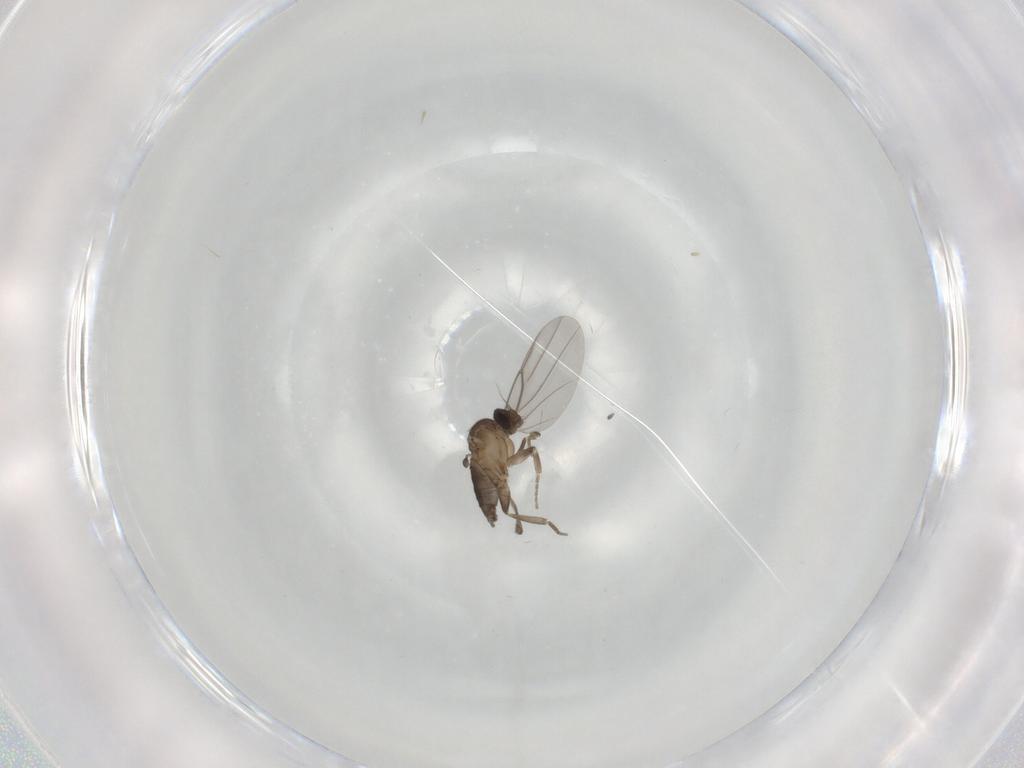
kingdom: Animalia
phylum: Arthropoda
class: Insecta
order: Diptera
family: Phoridae
